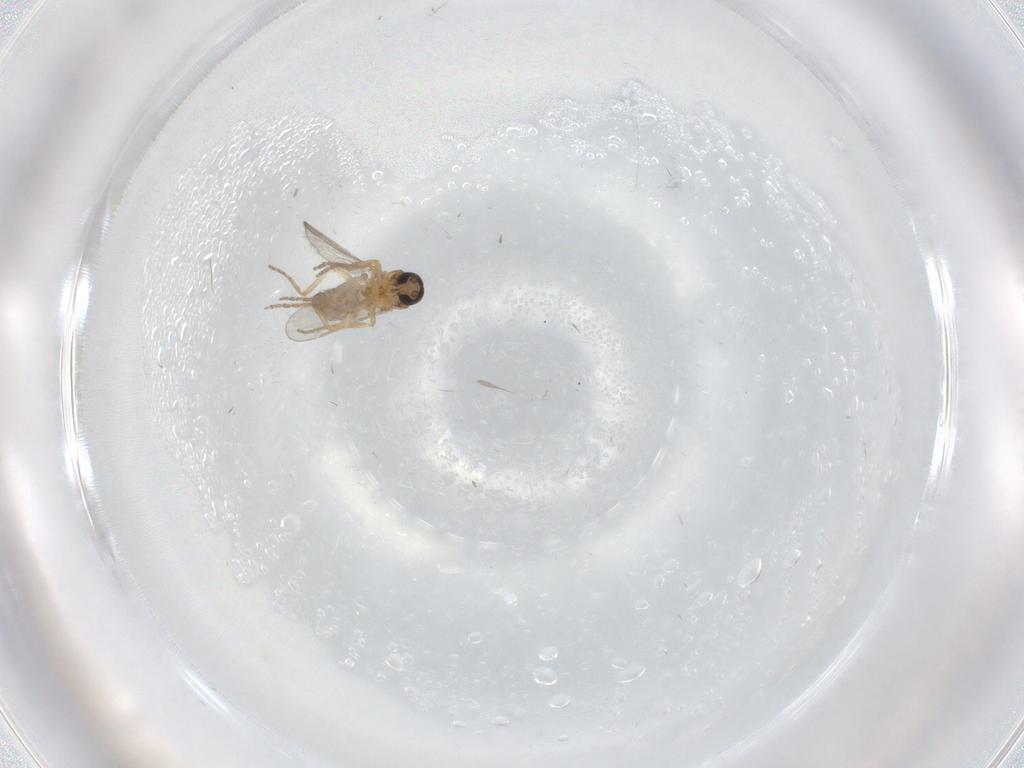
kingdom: Animalia
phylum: Arthropoda
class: Insecta
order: Diptera
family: Ceratopogonidae
